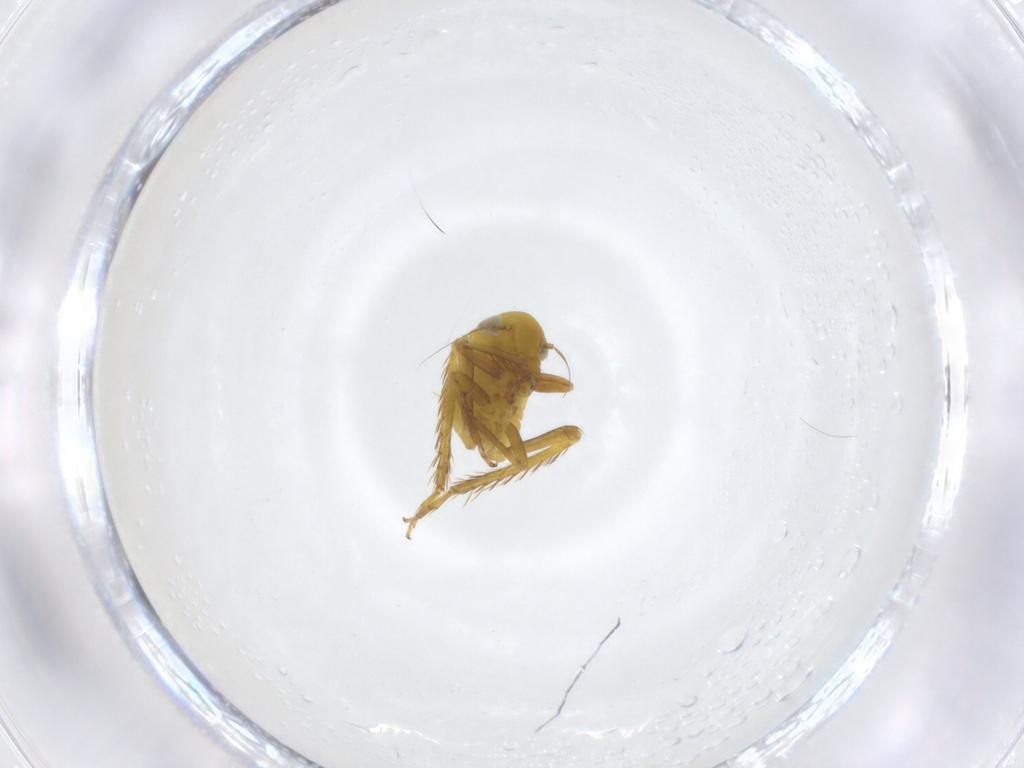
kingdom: Animalia
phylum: Arthropoda
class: Insecta
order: Hemiptera
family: Cicadellidae
